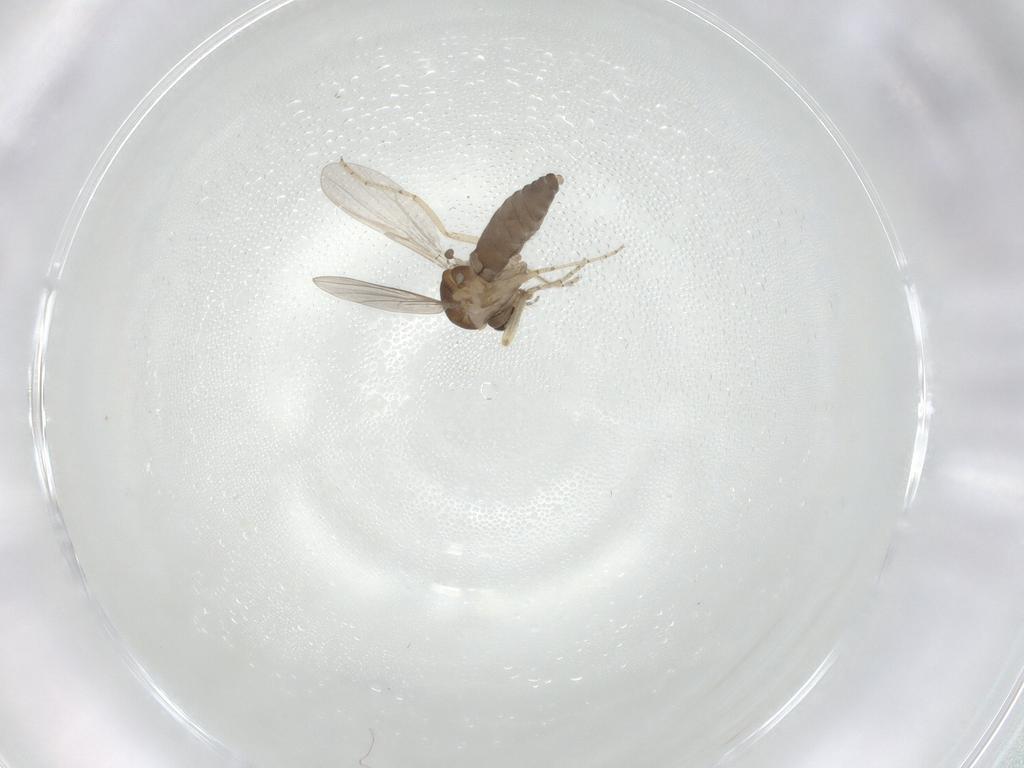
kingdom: Animalia
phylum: Arthropoda
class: Insecta
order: Diptera
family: Ceratopogonidae
